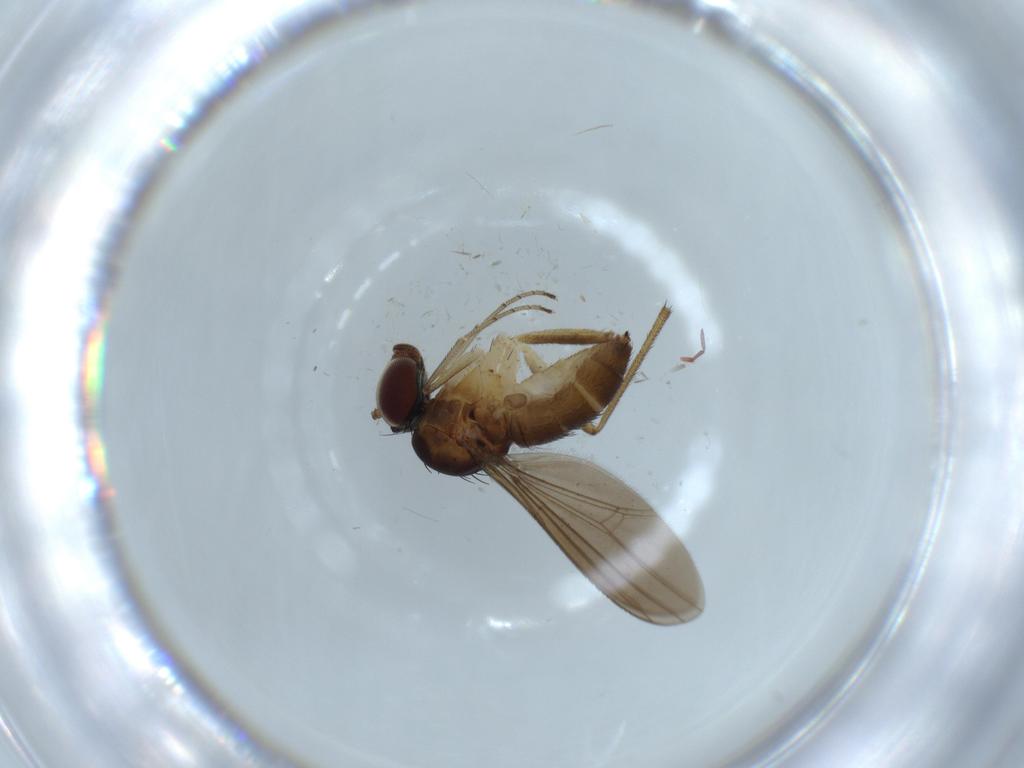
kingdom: Animalia
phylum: Arthropoda
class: Insecta
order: Diptera
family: Dolichopodidae
